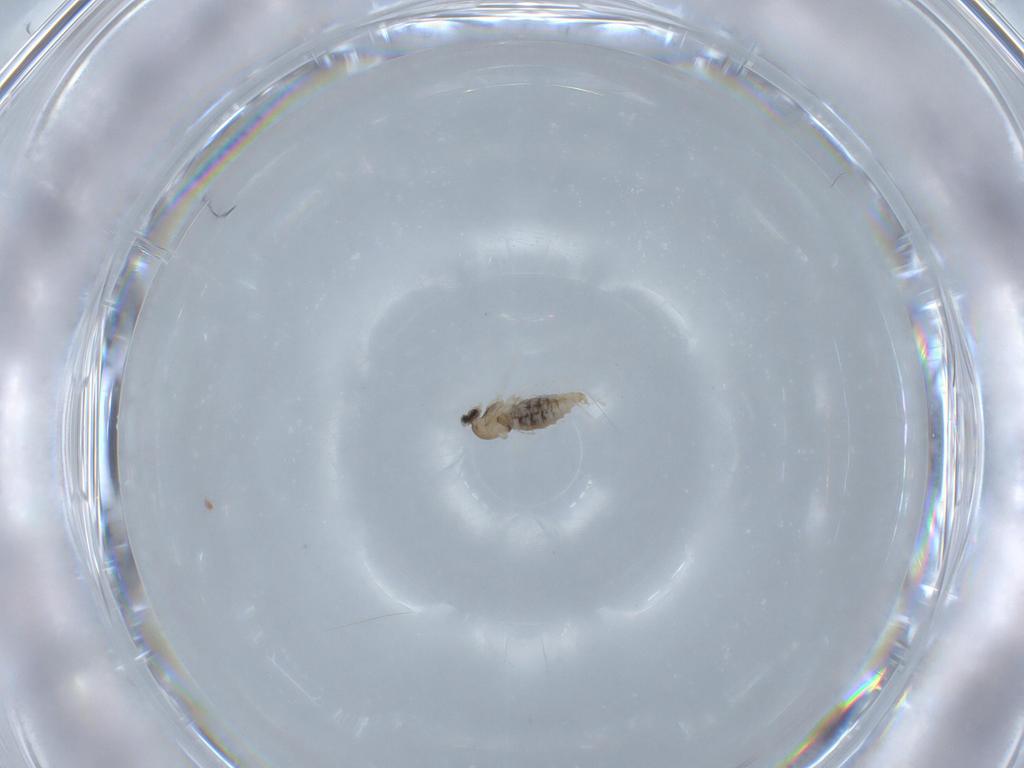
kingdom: Animalia
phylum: Arthropoda
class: Insecta
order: Diptera
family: Cecidomyiidae
